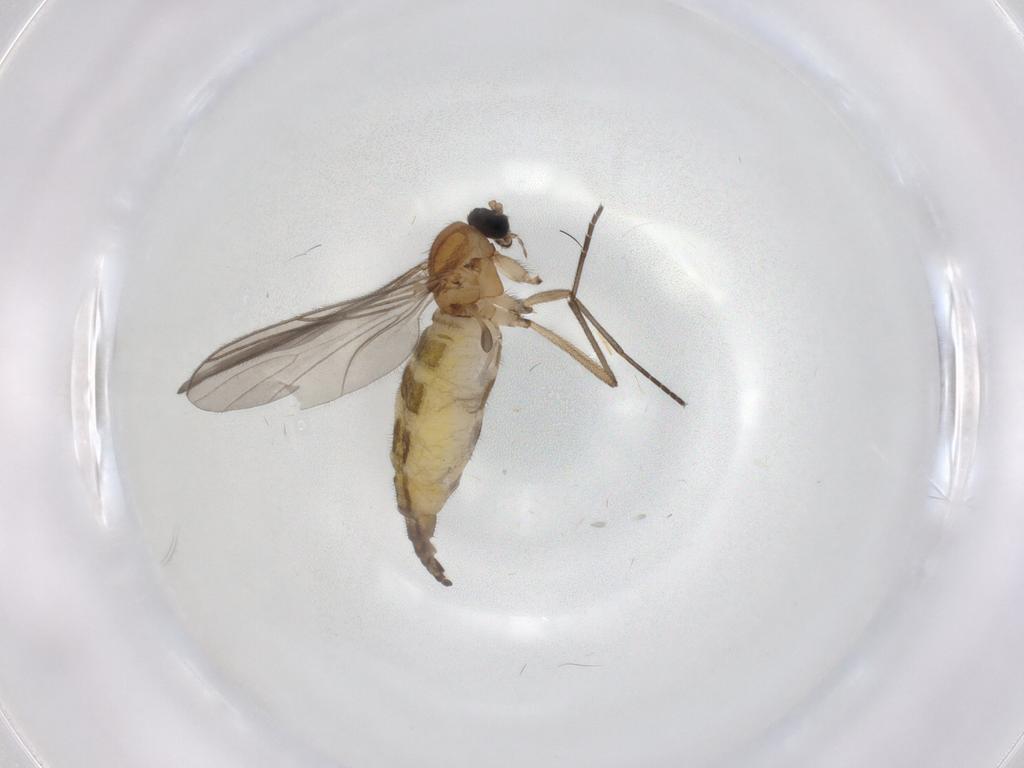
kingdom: Animalia
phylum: Arthropoda
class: Insecta
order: Diptera
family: Sciaridae
